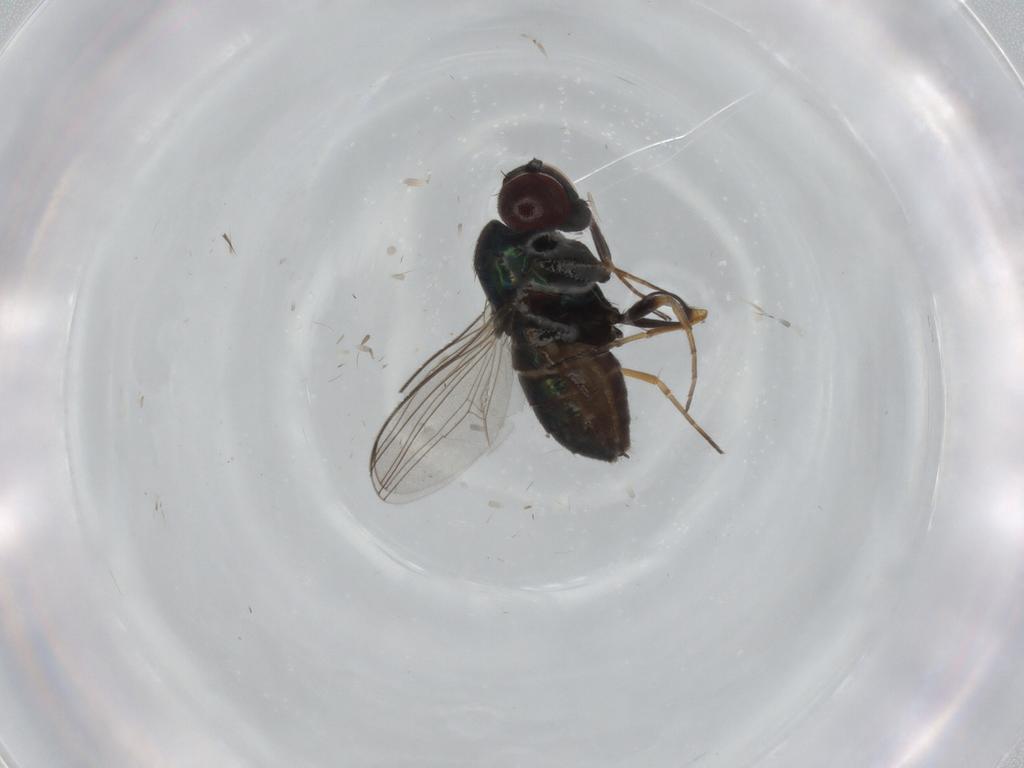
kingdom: Animalia
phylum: Arthropoda
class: Insecta
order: Diptera
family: Dolichopodidae
